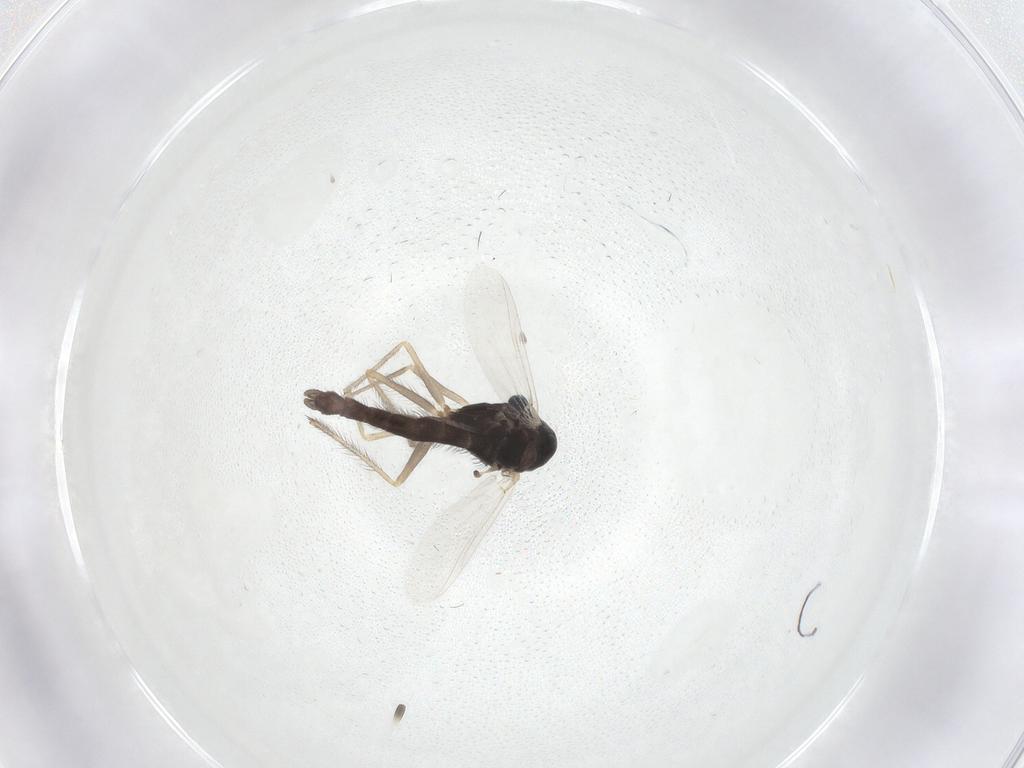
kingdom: Animalia
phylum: Arthropoda
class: Insecta
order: Diptera
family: Chironomidae
